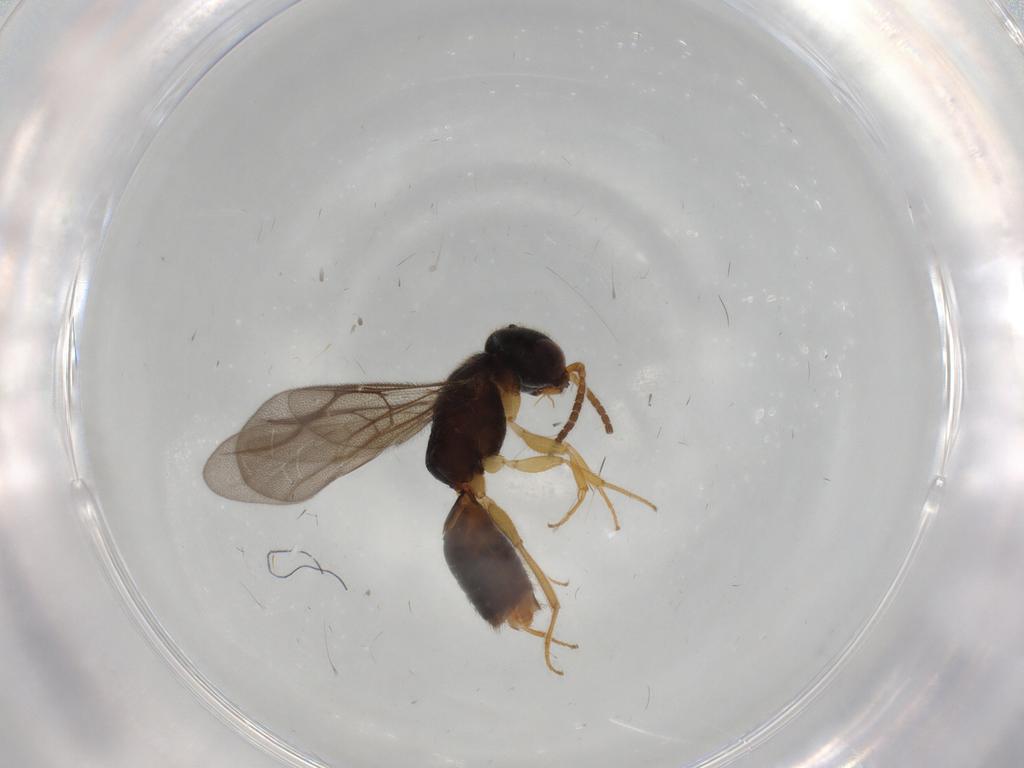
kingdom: Animalia
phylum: Arthropoda
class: Insecta
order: Hymenoptera
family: Bethylidae
